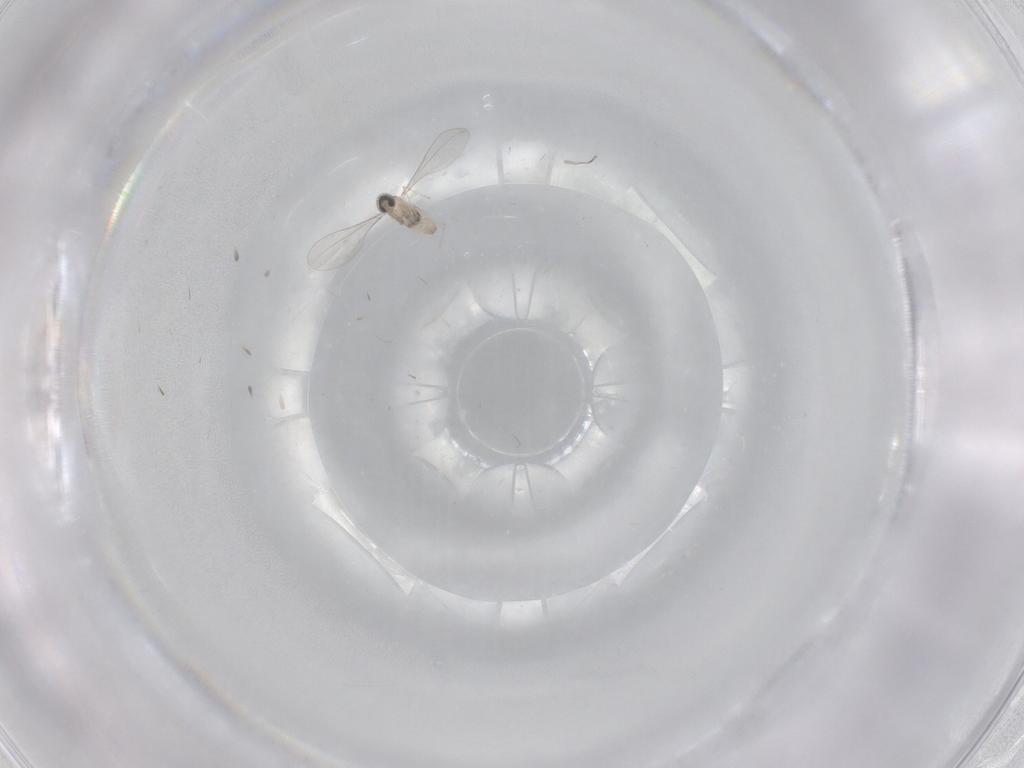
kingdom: Animalia
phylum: Arthropoda
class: Insecta
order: Diptera
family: Cecidomyiidae
